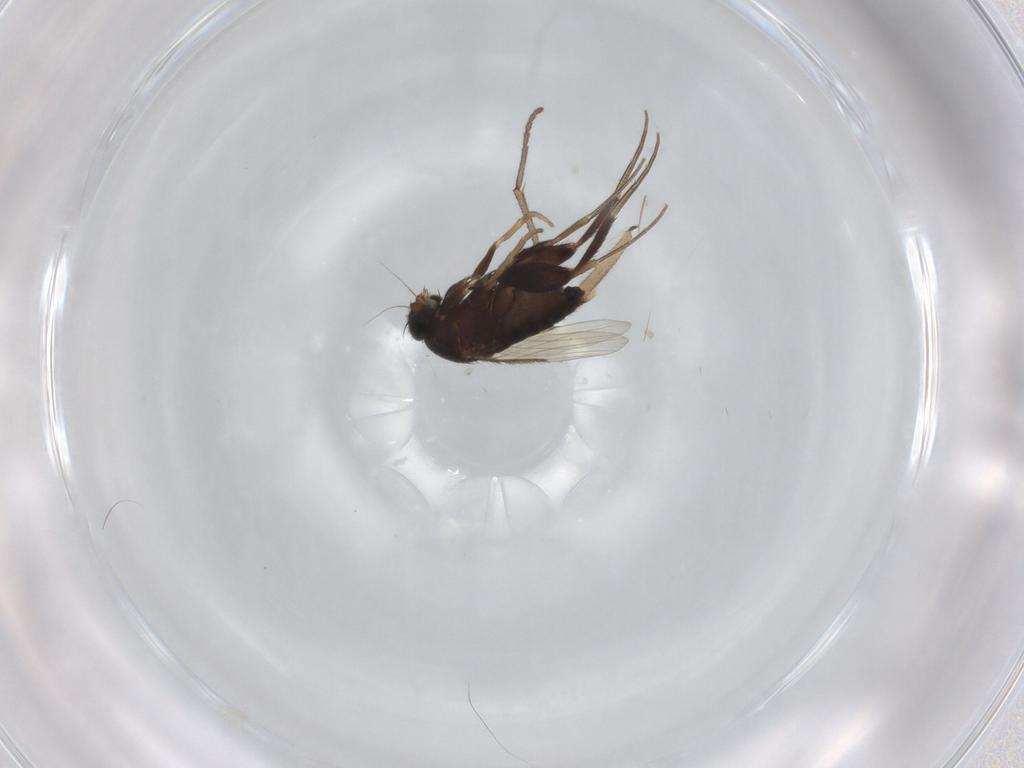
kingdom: Animalia
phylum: Arthropoda
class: Insecta
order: Diptera
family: Sciaridae
